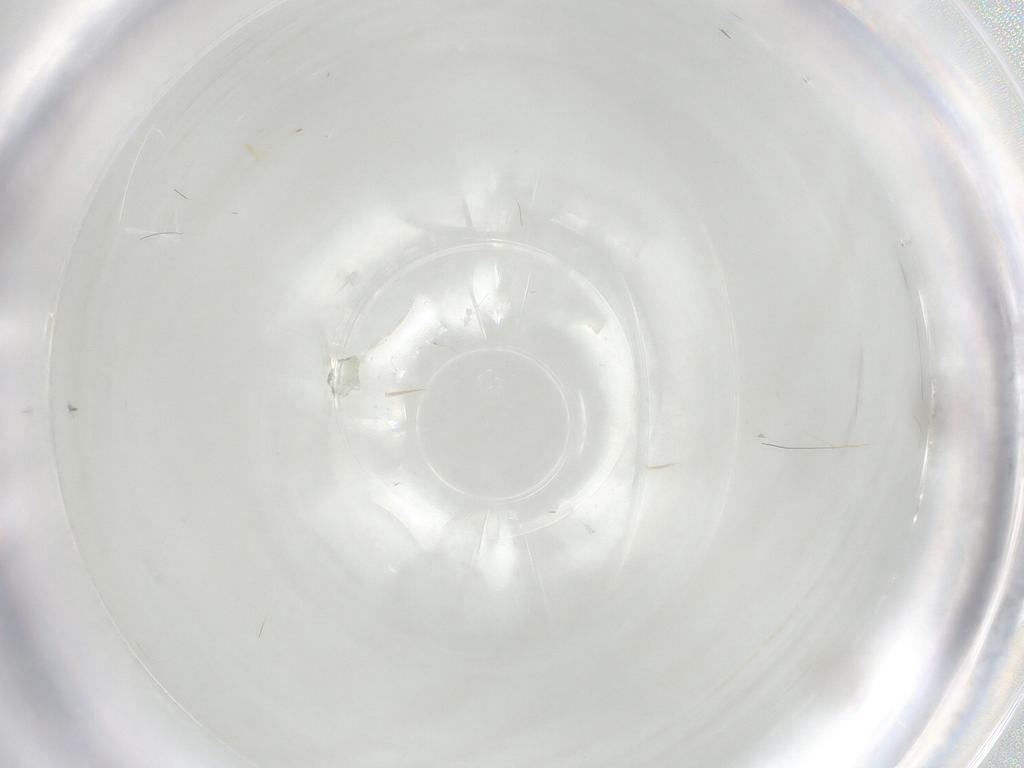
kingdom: Animalia
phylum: Arthropoda
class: Insecta
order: Diptera
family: Cecidomyiidae
